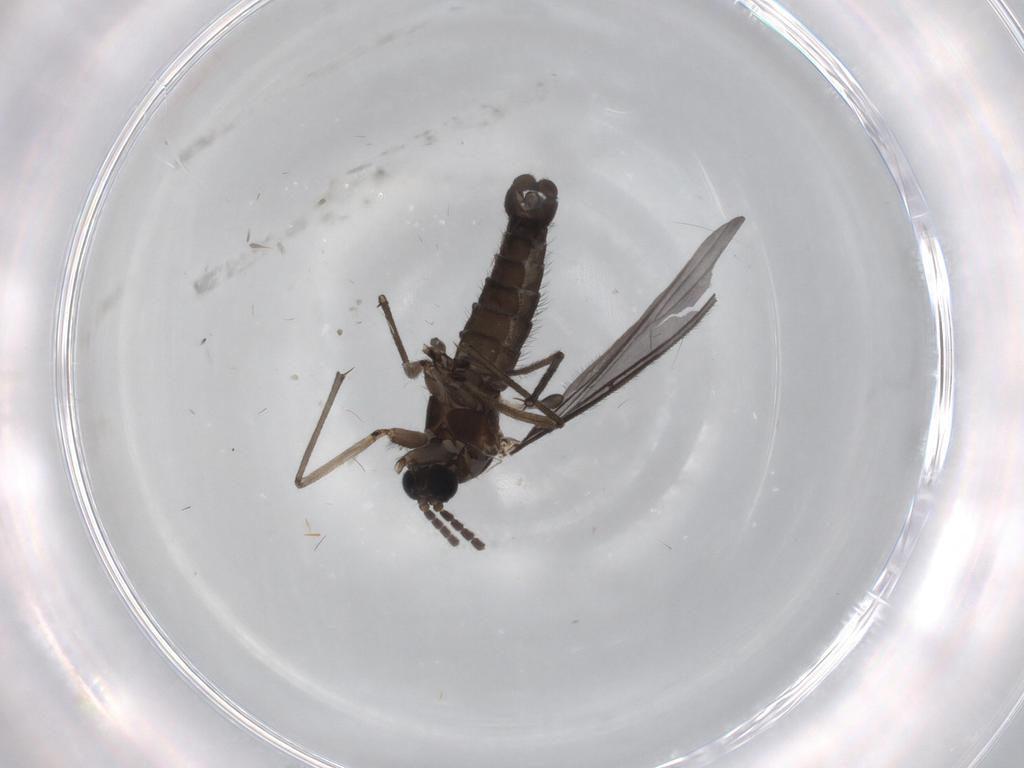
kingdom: Animalia
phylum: Arthropoda
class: Insecta
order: Diptera
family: Sciaridae
